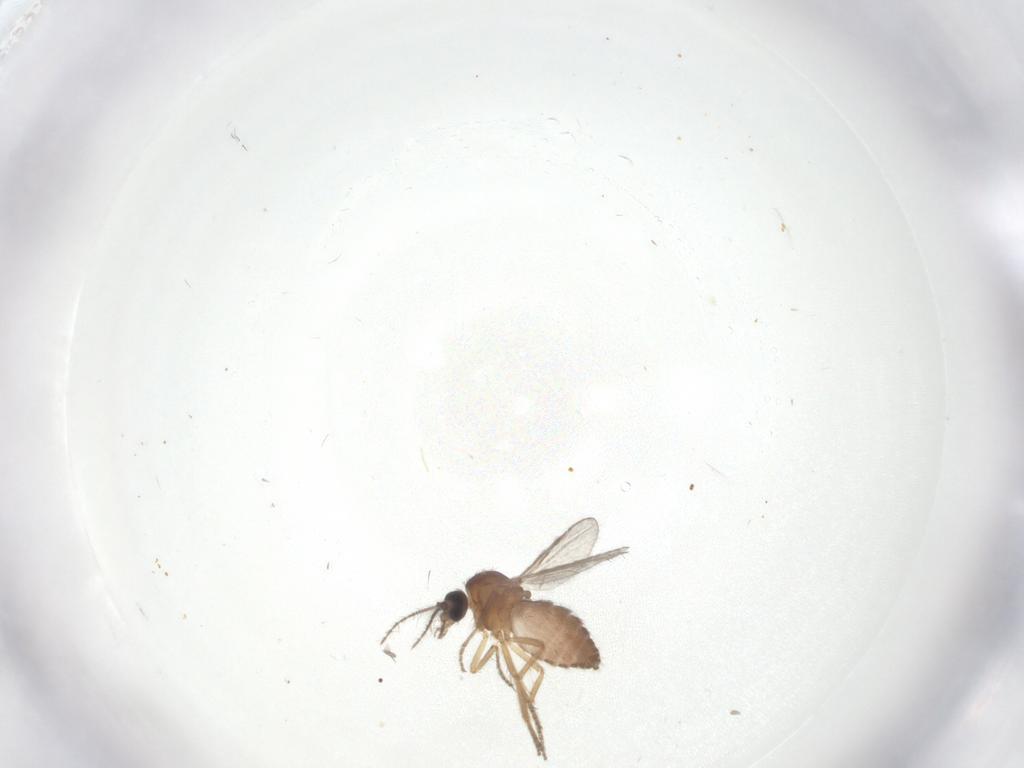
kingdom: Animalia
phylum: Arthropoda
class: Insecta
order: Diptera
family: Ceratopogonidae
